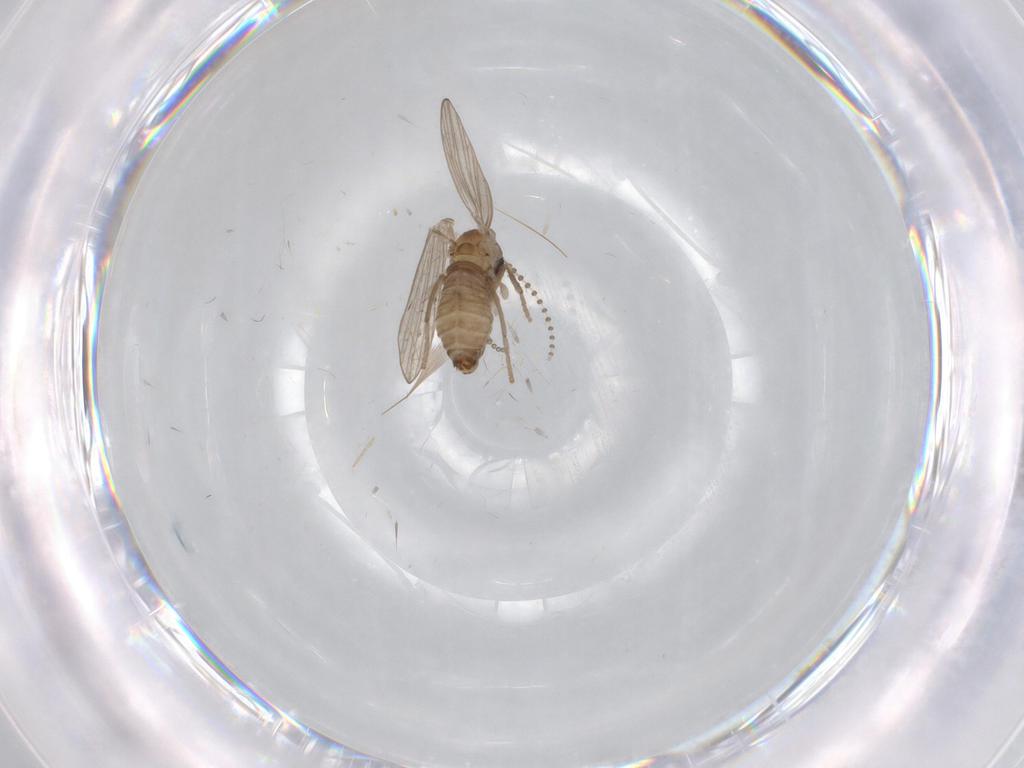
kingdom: Animalia
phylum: Arthropoda
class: Insecta
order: Diptera
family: Psychodidae
